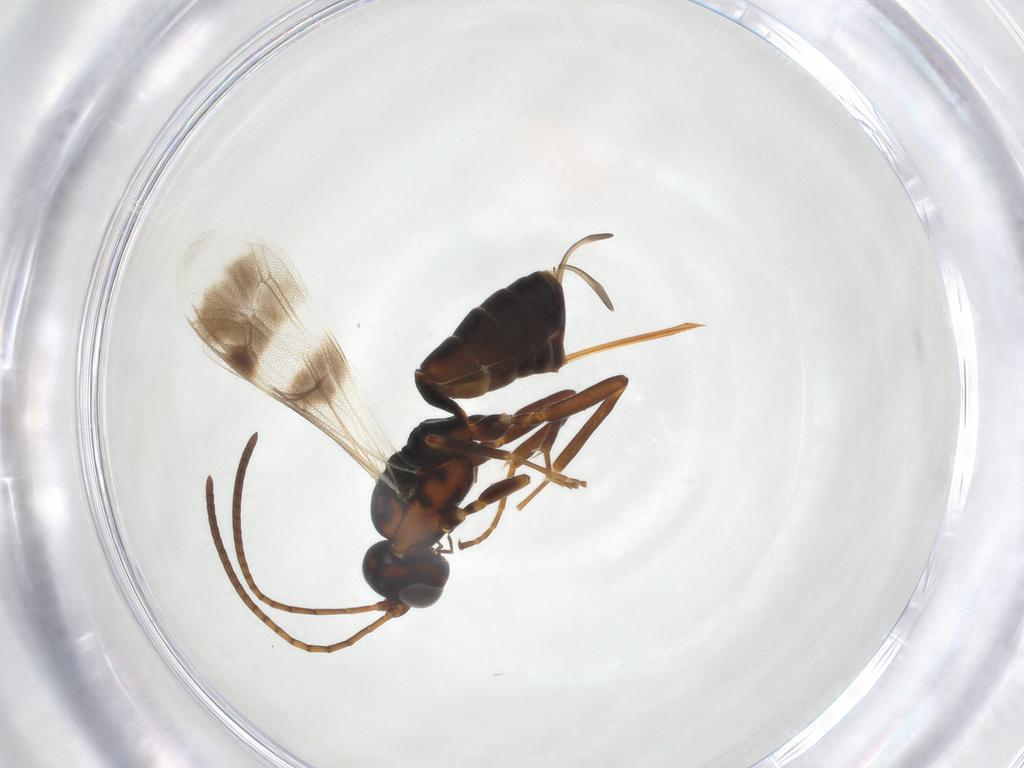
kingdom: Animalia
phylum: Arthropoda
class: Insecta
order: Hymenoptera
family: Ichneumonidae
